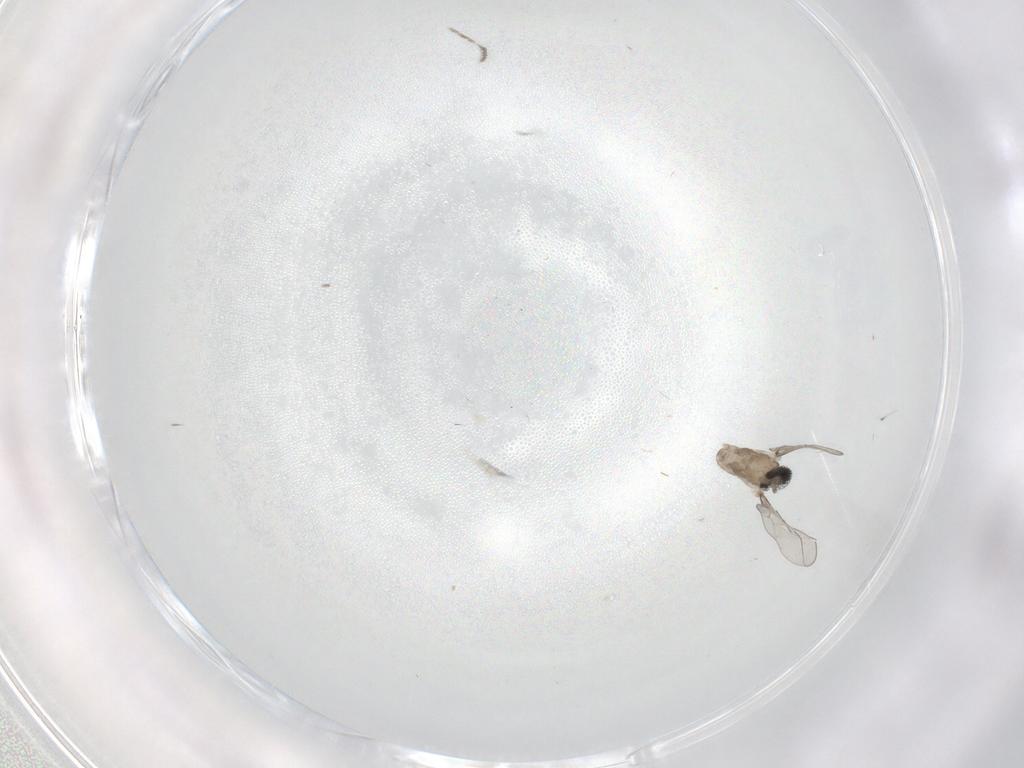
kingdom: Animalia
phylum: Arthropoda
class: Insecta
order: Diptera
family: Cecidomyiidae
